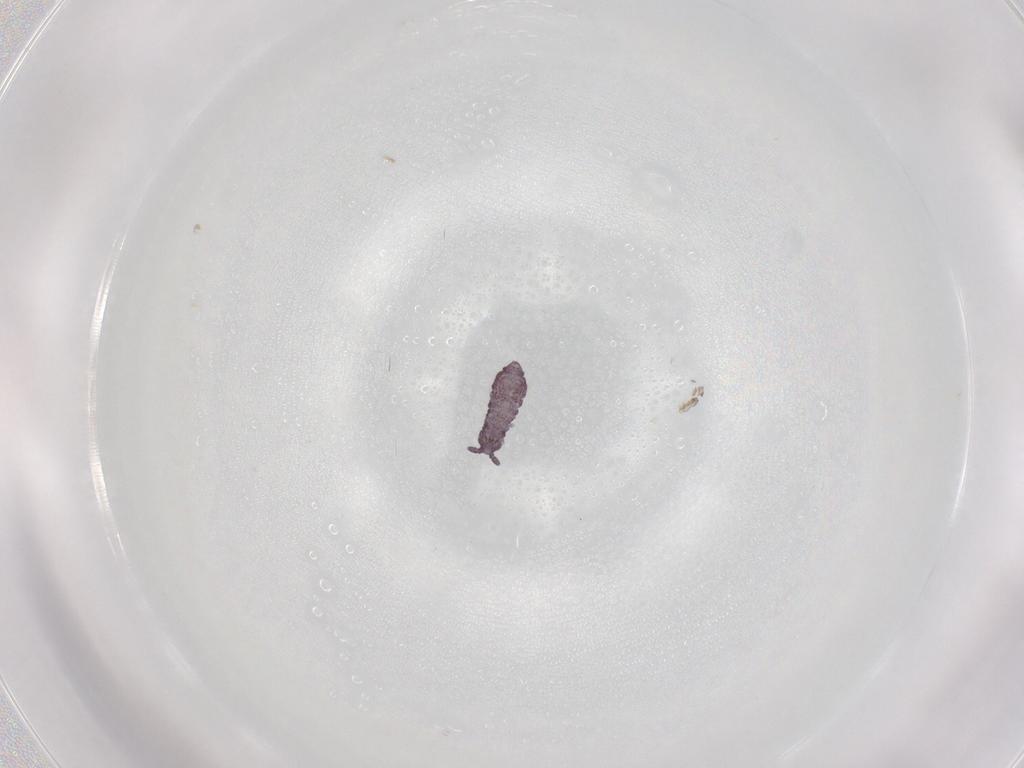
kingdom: Animalia
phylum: Arthropoda
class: Collembola
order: Poduromorpha
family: Hypogastruridae
